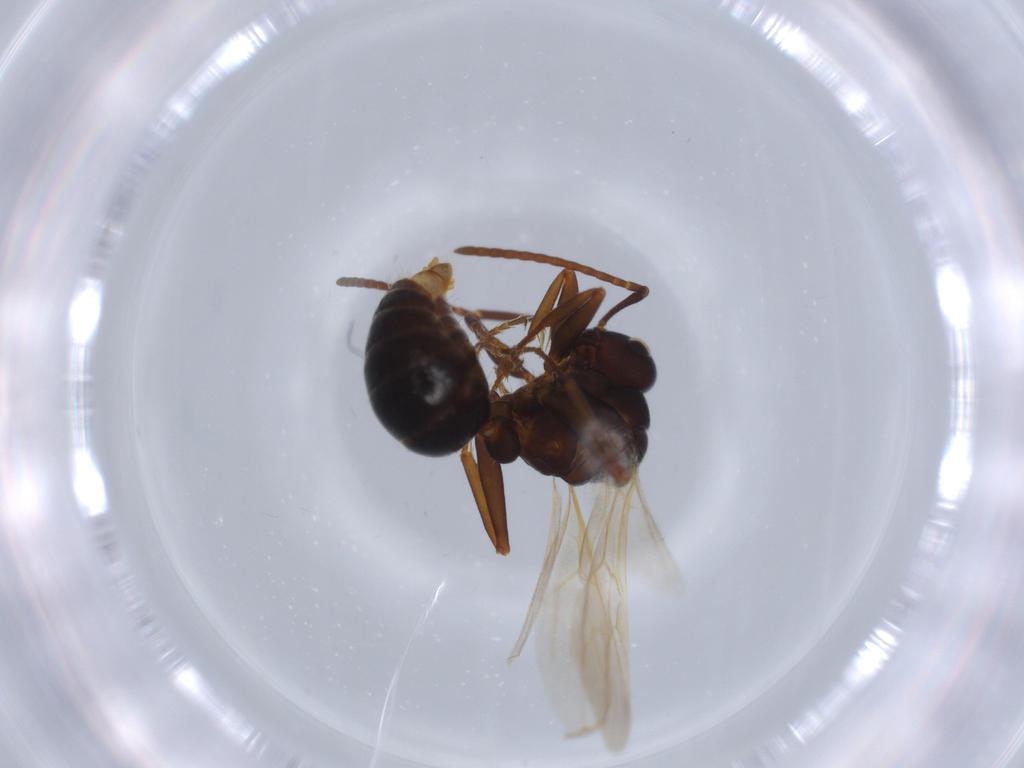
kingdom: Animalia
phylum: Arthropoda
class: Insecta
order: Hymenoptera
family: Formicidae
